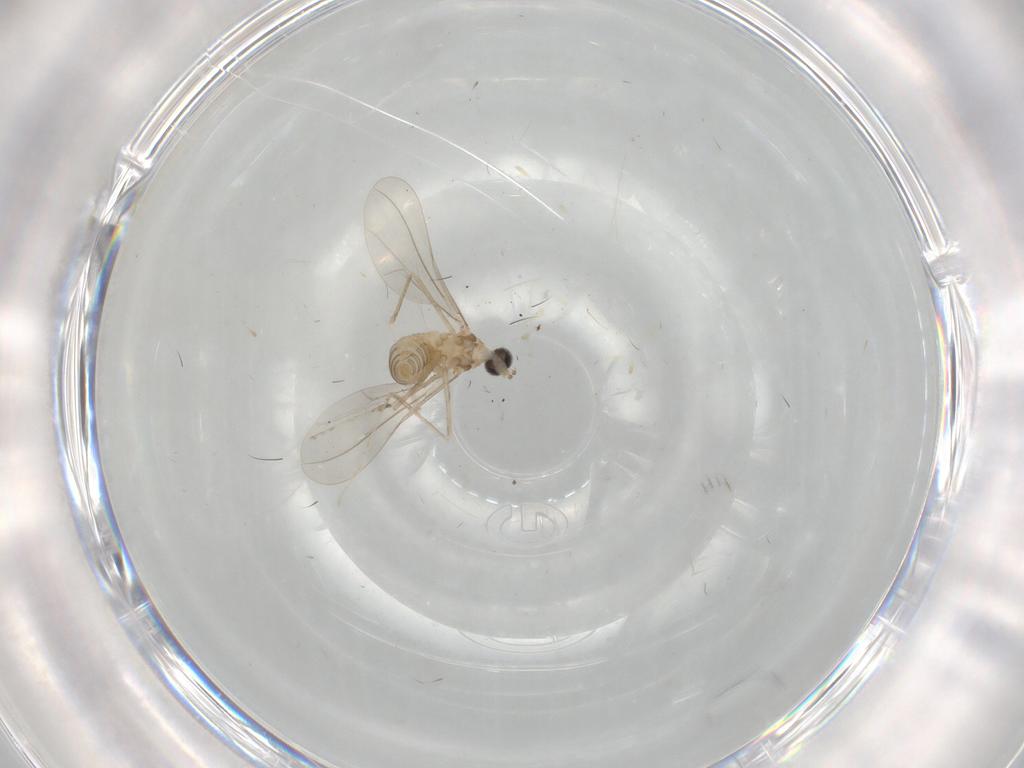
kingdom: Animalia
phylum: Arthropoda
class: Insecta
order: Diptera
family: Cecidomyiidae
